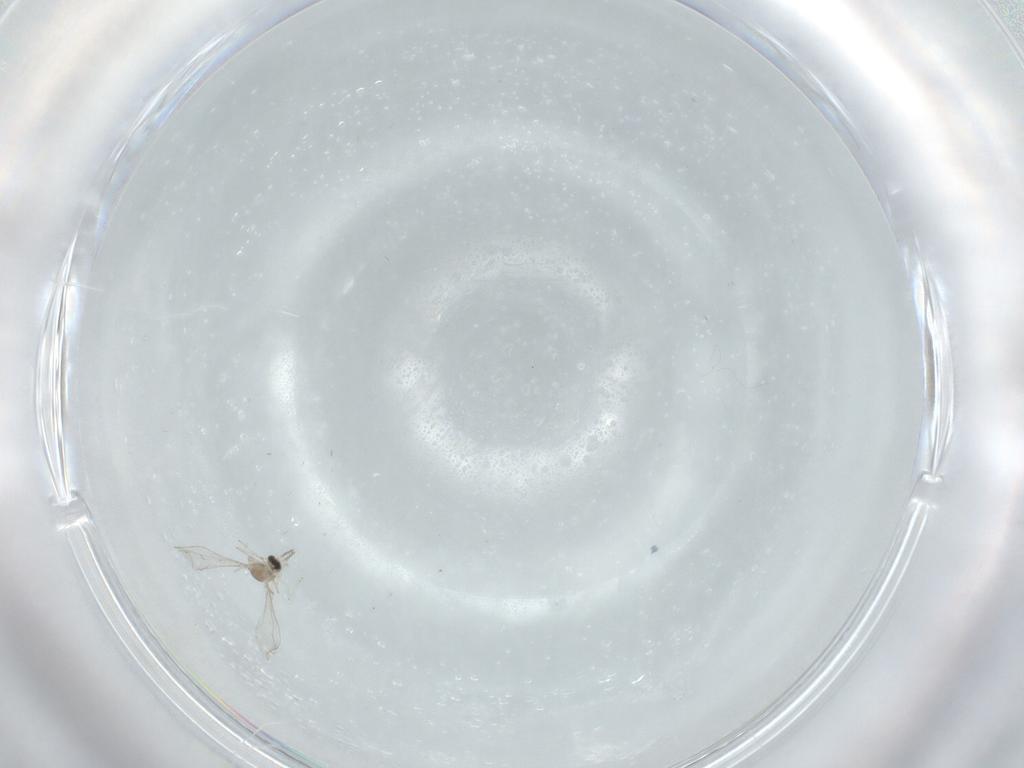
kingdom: Animalia
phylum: Arthropoda
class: Insecta
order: Diptera
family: Cecidomyiidae
